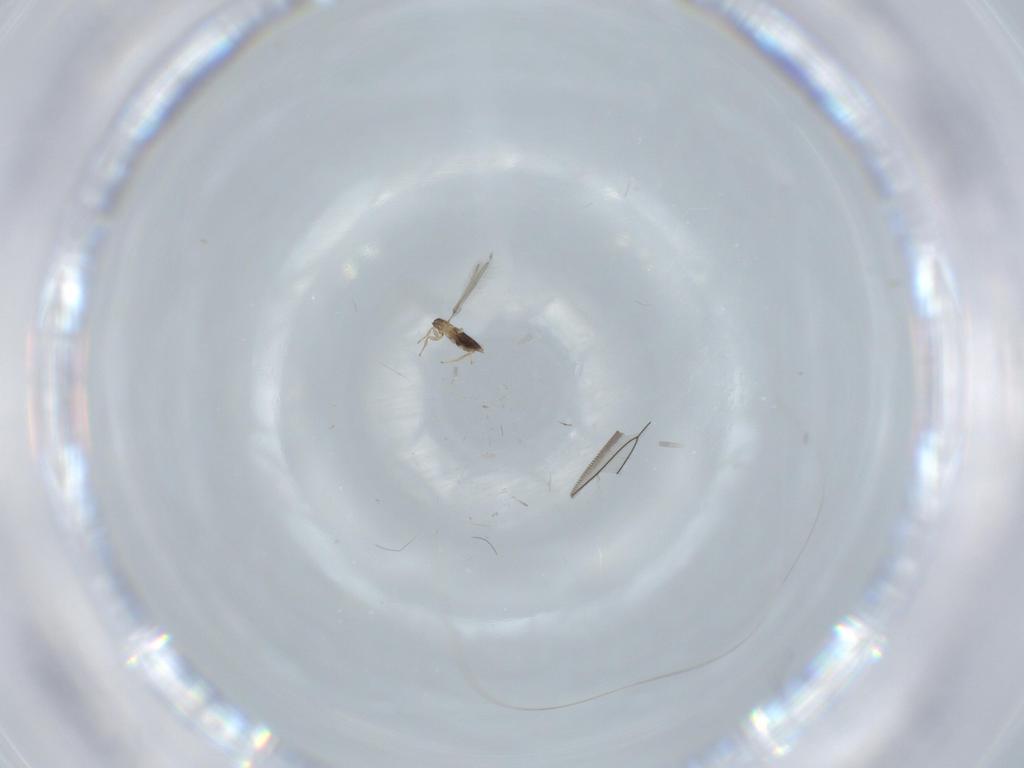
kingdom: Animalia
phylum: Arthropoda
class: Insecta
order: Hymenoptera
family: Mymaridae
